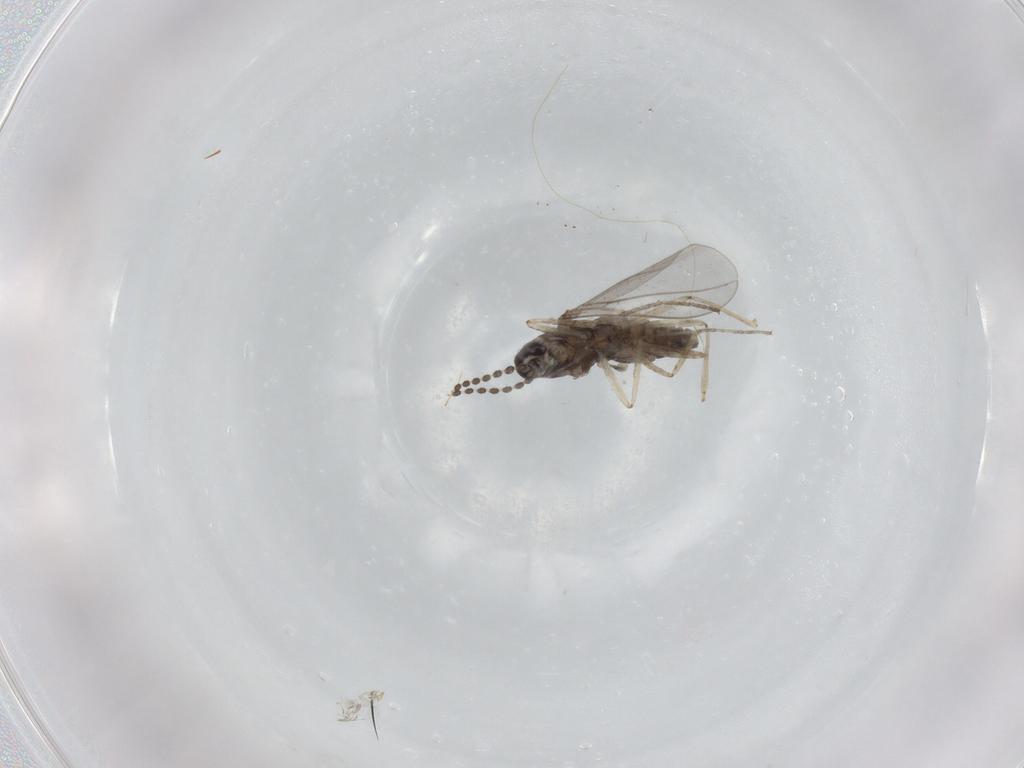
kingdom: Animalia
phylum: Arthropoda
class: Insecta
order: Diptera
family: Cecidomyiidae
